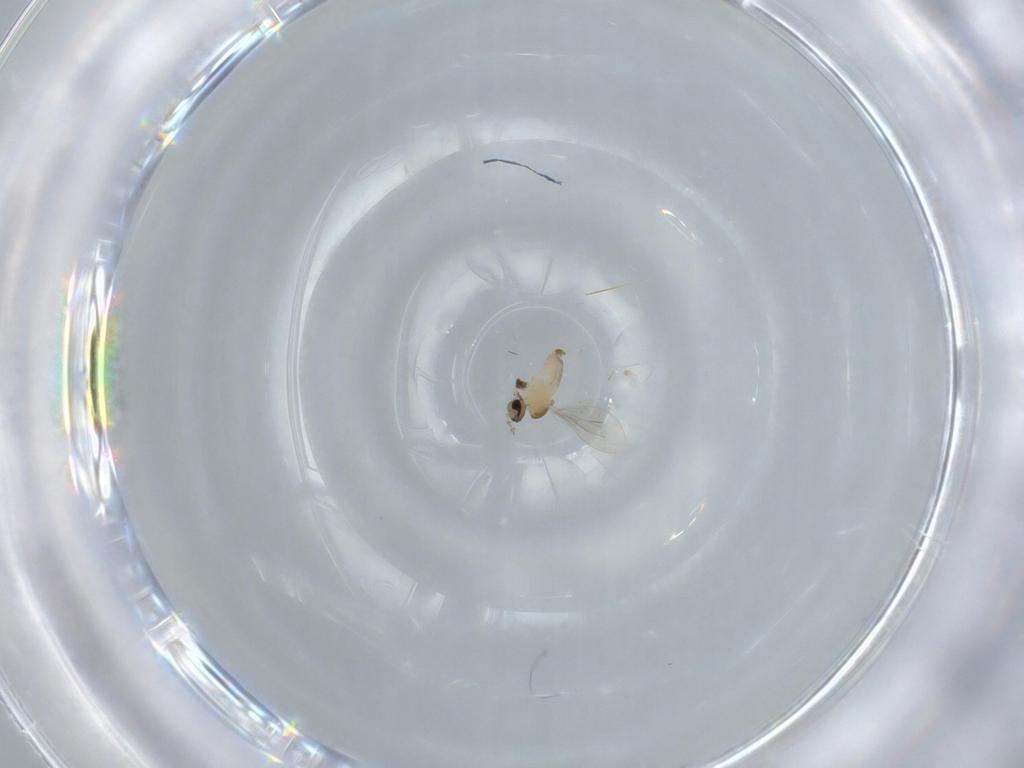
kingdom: Animalia
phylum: Arthropoda
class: Insecta
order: Diptera
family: Cecidomyiidae
